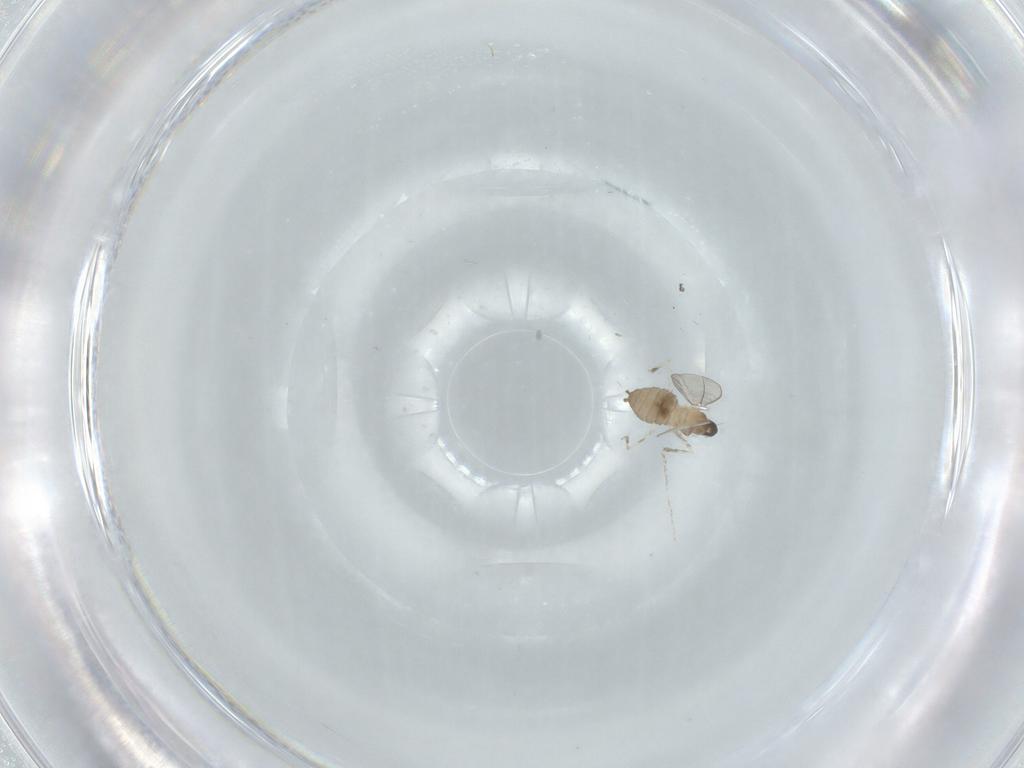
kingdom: Animalia
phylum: Arthropoda
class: Insecta
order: Diptera
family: Cecidomyiidae
